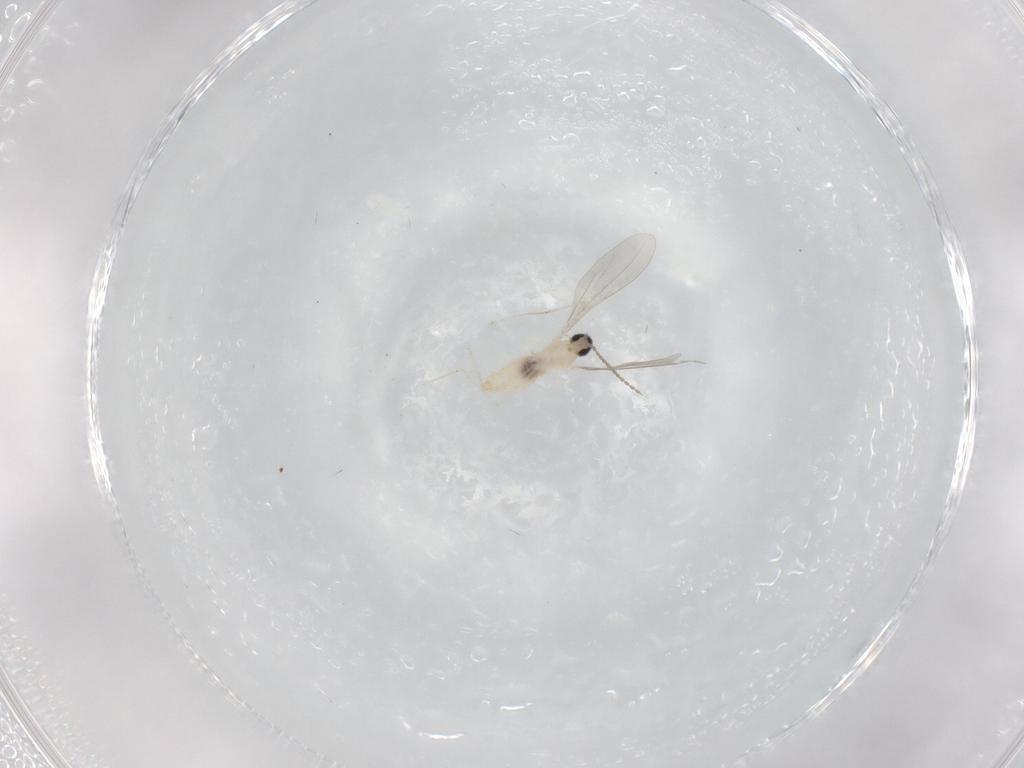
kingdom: Animalia
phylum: Arthropoda
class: Insecta
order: Diptera
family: Cecidomyiidae
